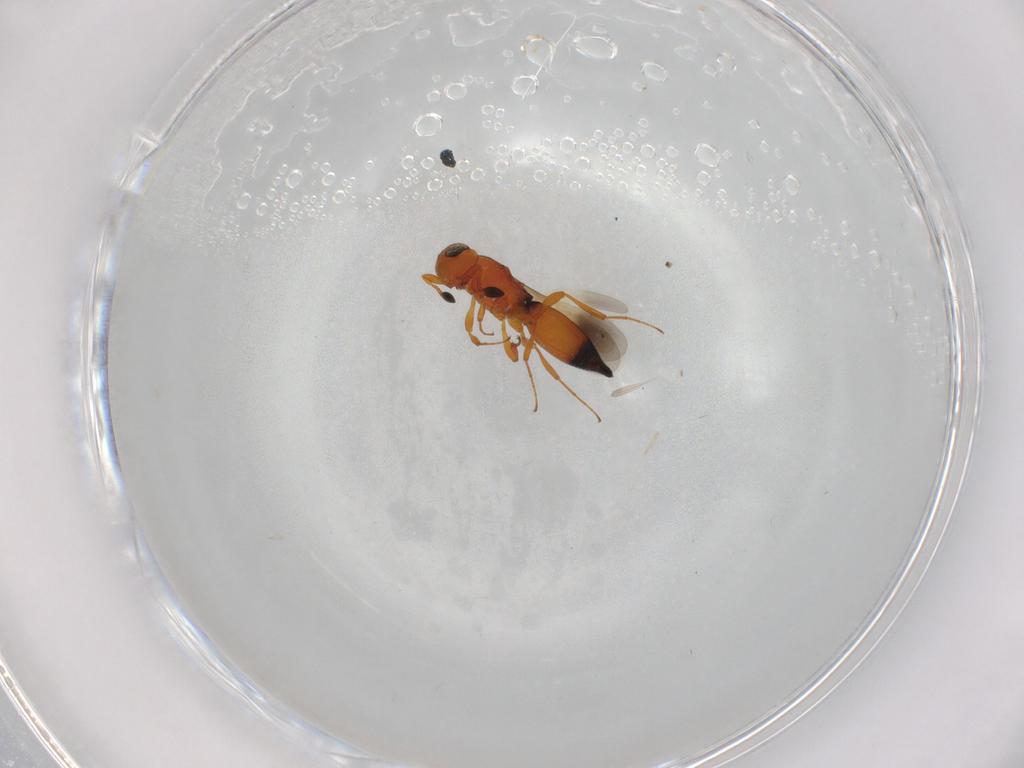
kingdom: Animalia
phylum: Arthropoda
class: Insecta
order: Hymenoptera
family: Platygastridae
